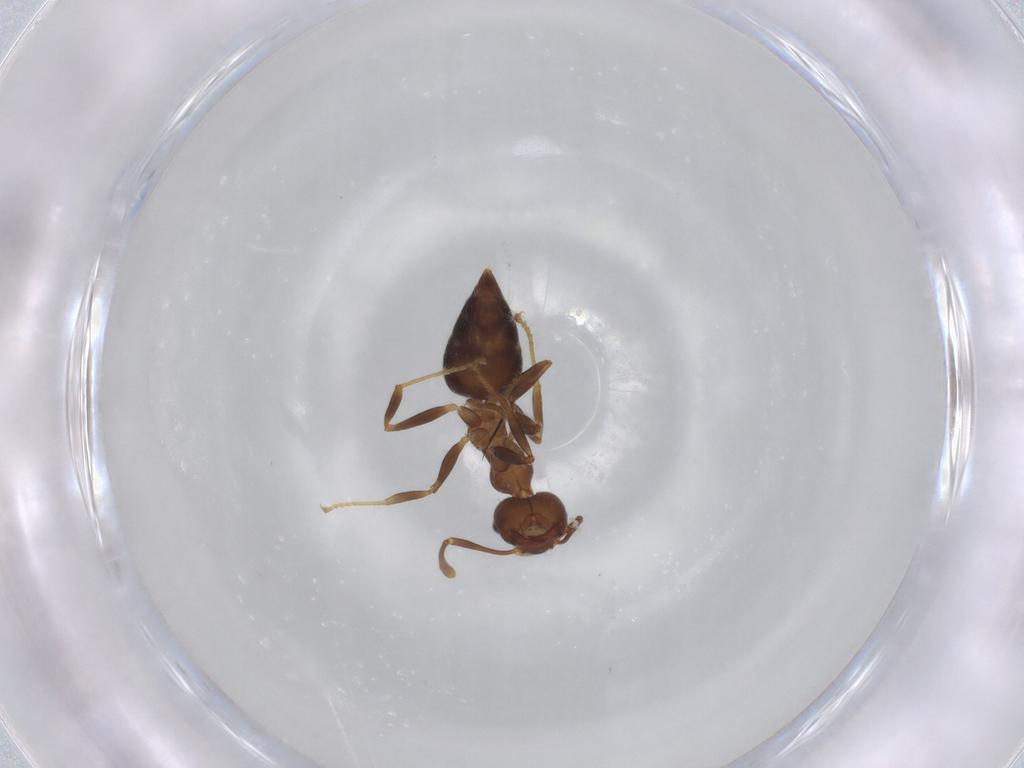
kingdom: Animalia
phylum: Arthropoda
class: Insecta
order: Hymenoptera
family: Formicidae
